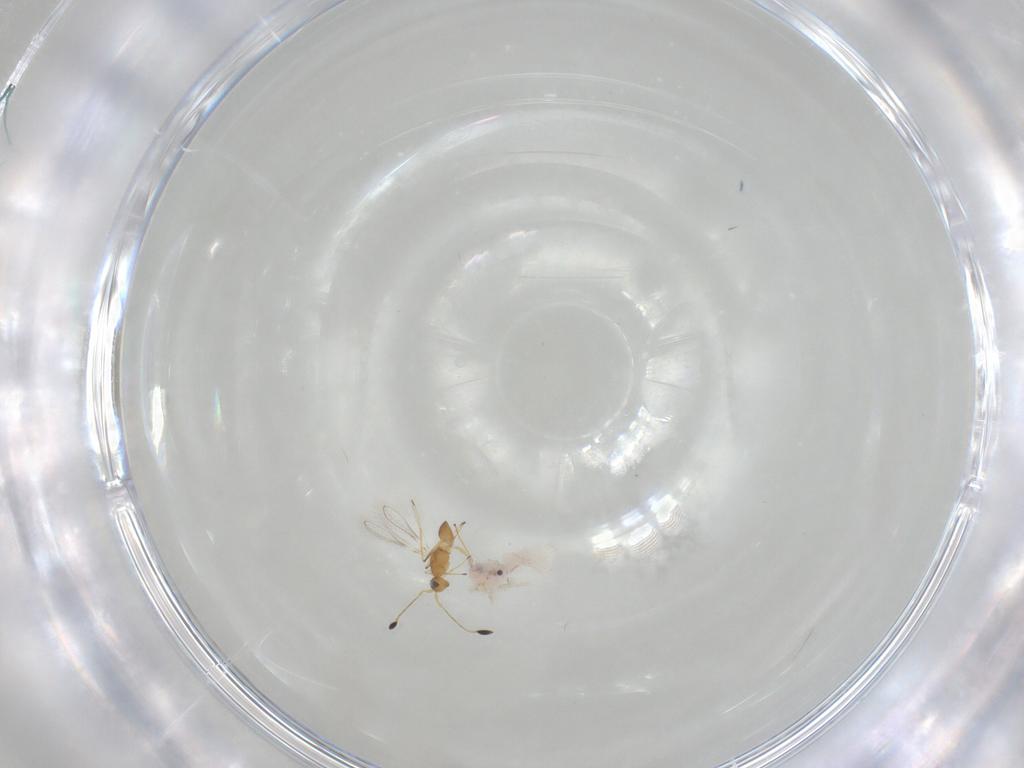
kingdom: Animalia
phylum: Arthropoda
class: Insecta
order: Hymenoptera
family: Mymaridae
